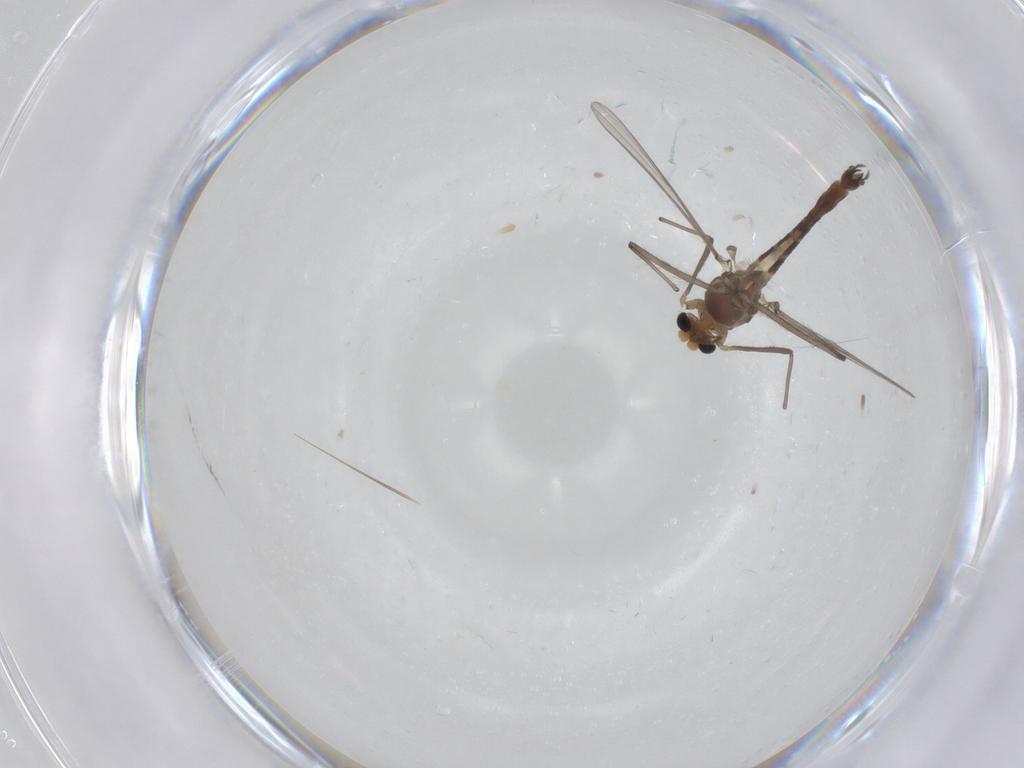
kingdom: Animalia
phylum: Arthropoda
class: Insecta
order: Diptera
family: Chironomidae
